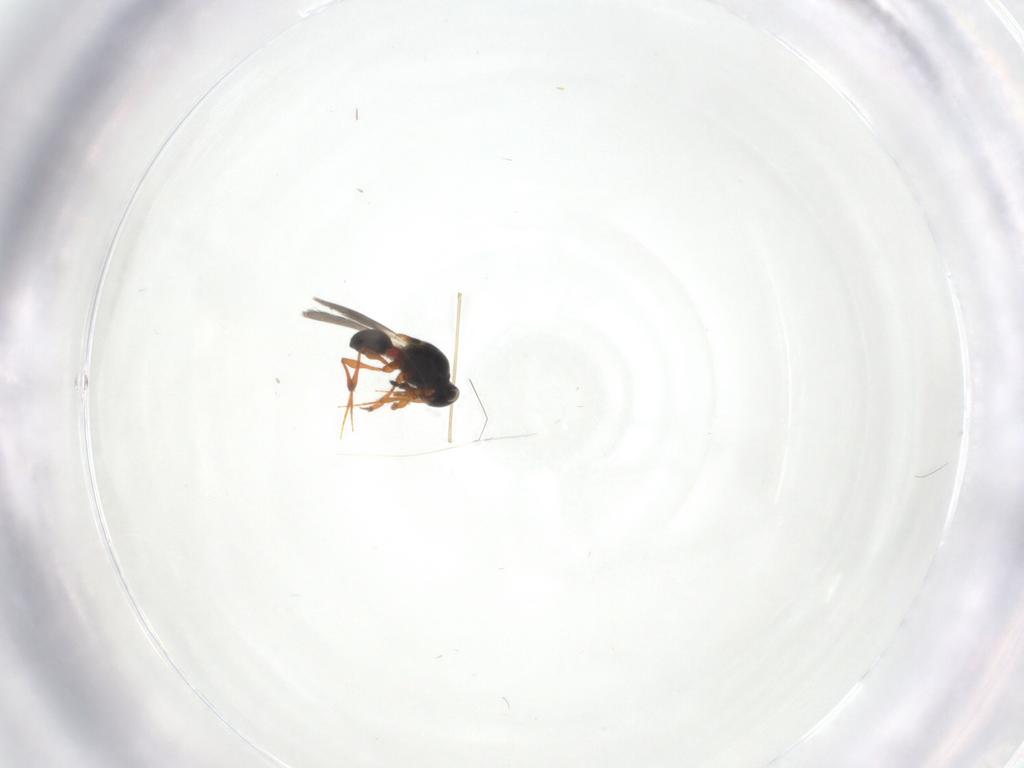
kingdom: Animalia
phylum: Arthropoda
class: Insecta
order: Hymenoptera
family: Platygastridae
